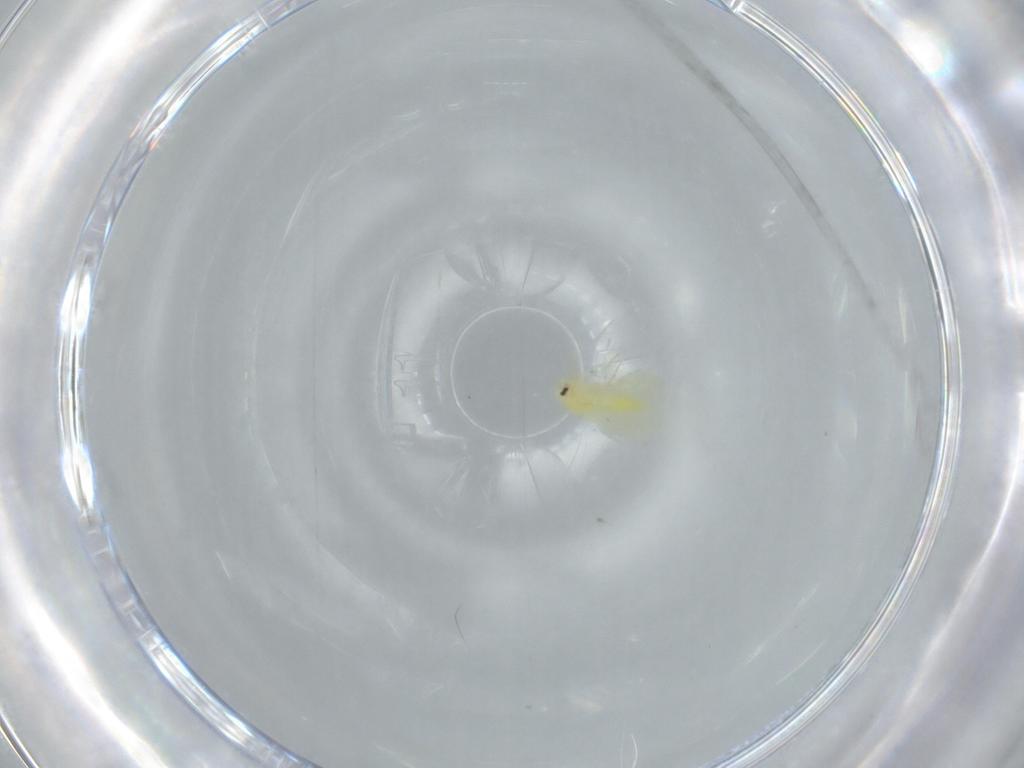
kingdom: Animalia
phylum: Arthropoda
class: Insecta
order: Hemiptera
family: Aleyrodidae
